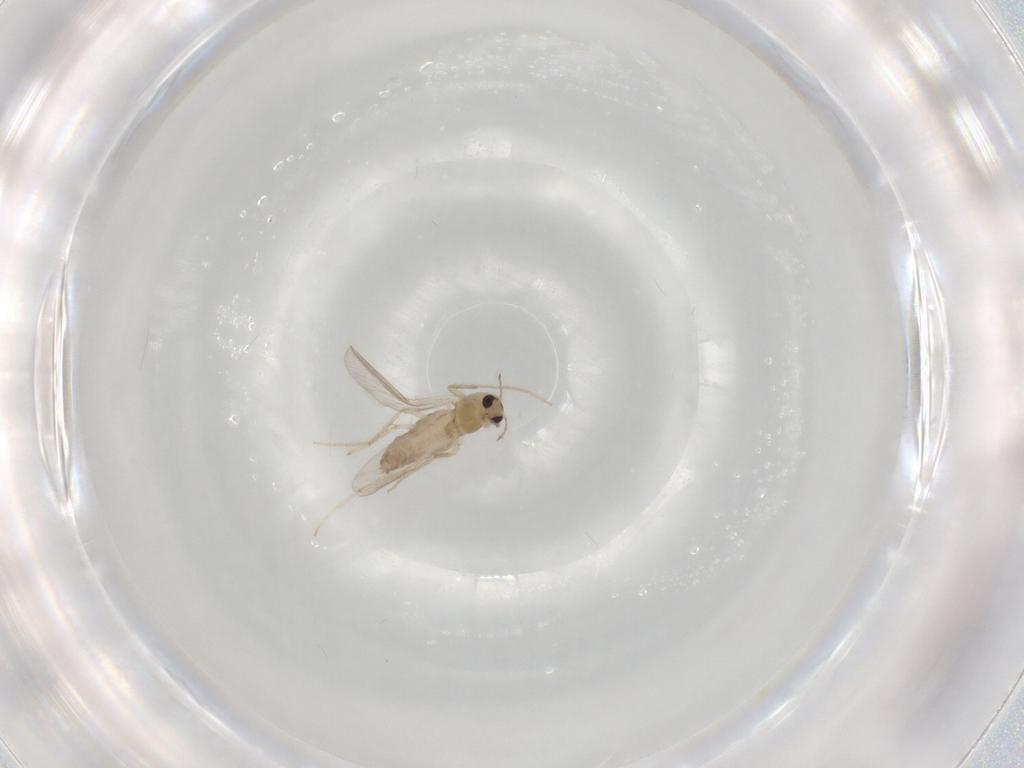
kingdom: Animalia
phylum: Arthropoda
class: Insecta
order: Diptera
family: Chironomidae
